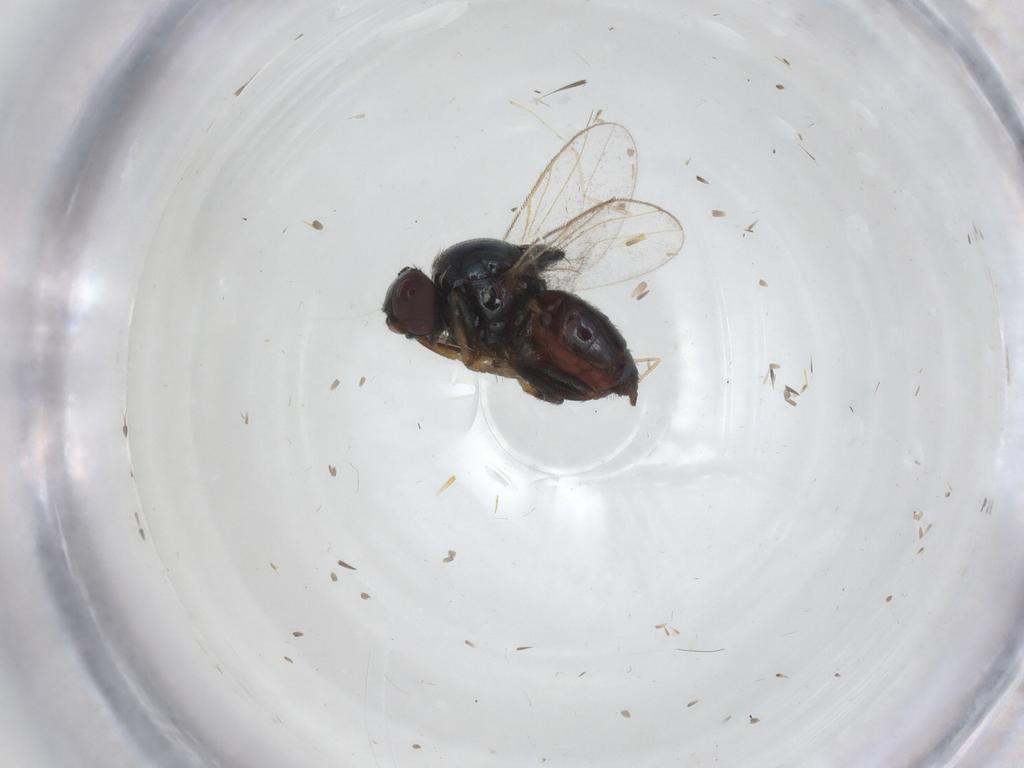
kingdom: Animalia
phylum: Arthropoda
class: Insecta
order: Diptera
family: Chloropidae
